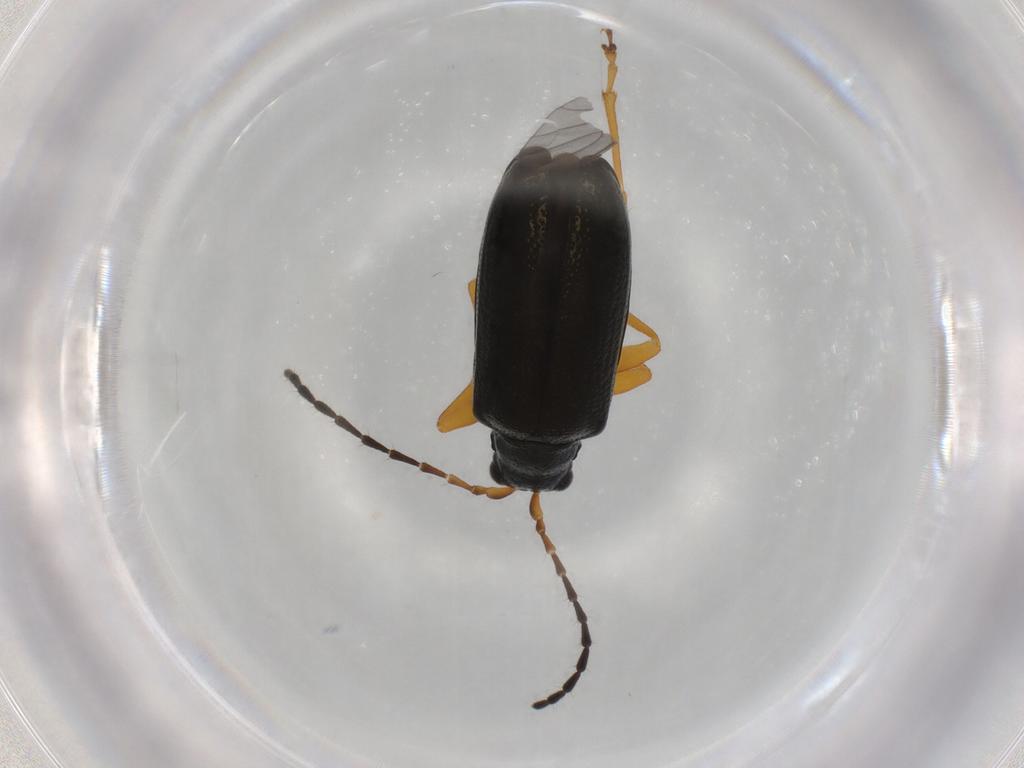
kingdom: Animalia
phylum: Arthropoda
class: Insecta
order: Coleoptera
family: Chrysomelidae
